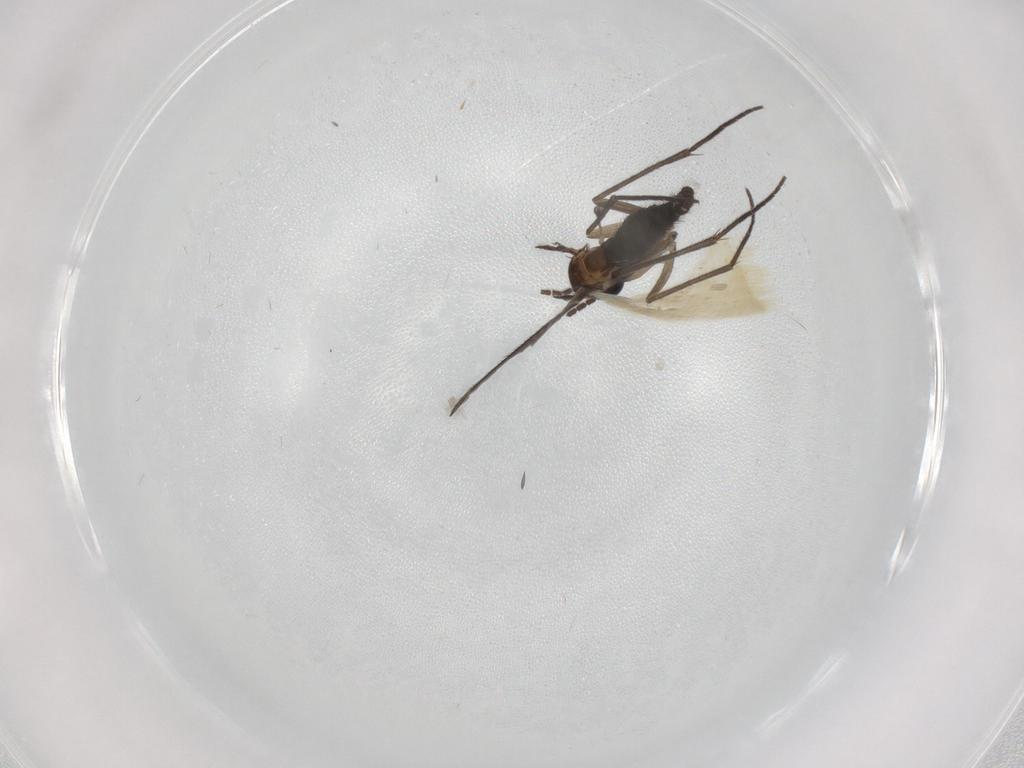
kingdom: Animalia
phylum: Arthropoda
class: Insecta
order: Diptera
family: Sciaridae
